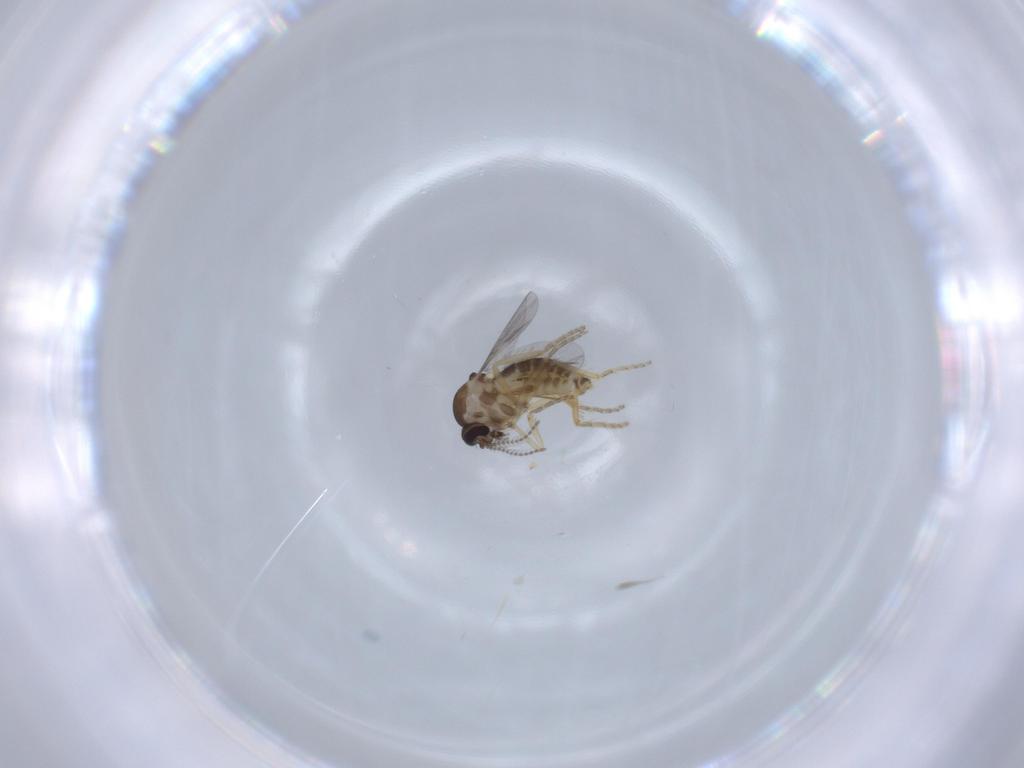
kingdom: Animalia
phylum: Arthropoda
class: Insecta
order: Diptera
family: Ceratopogonidae
